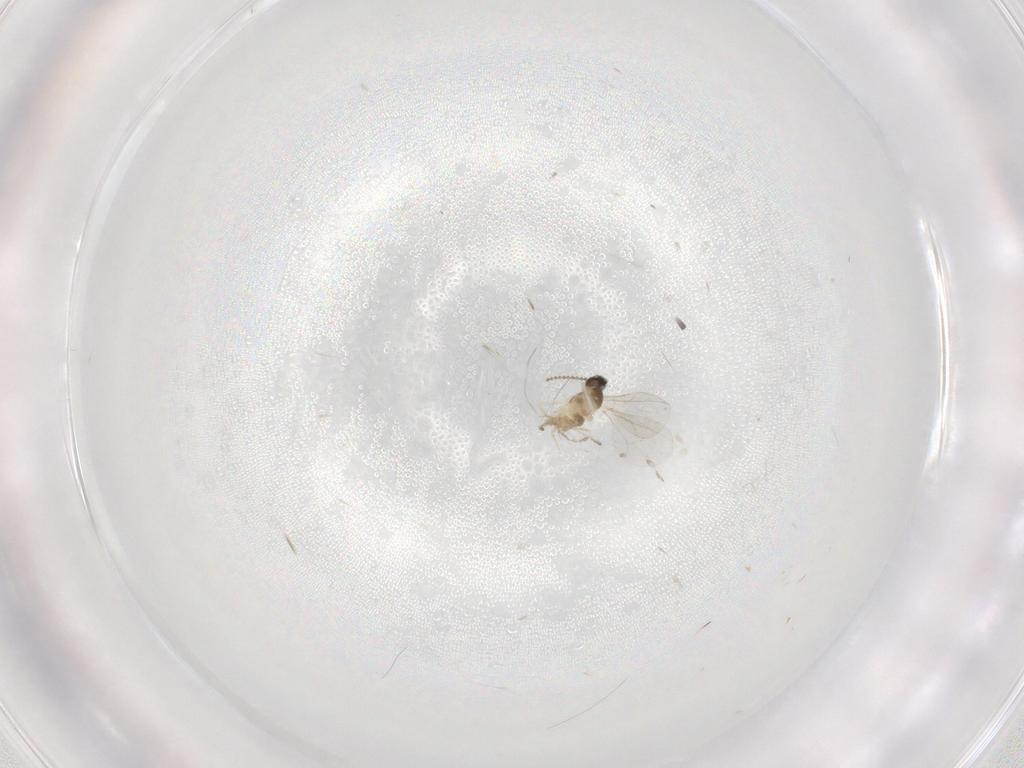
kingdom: Animalia
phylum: Arthropoda
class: Insecta
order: Diptera
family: Cecidomyiidae
